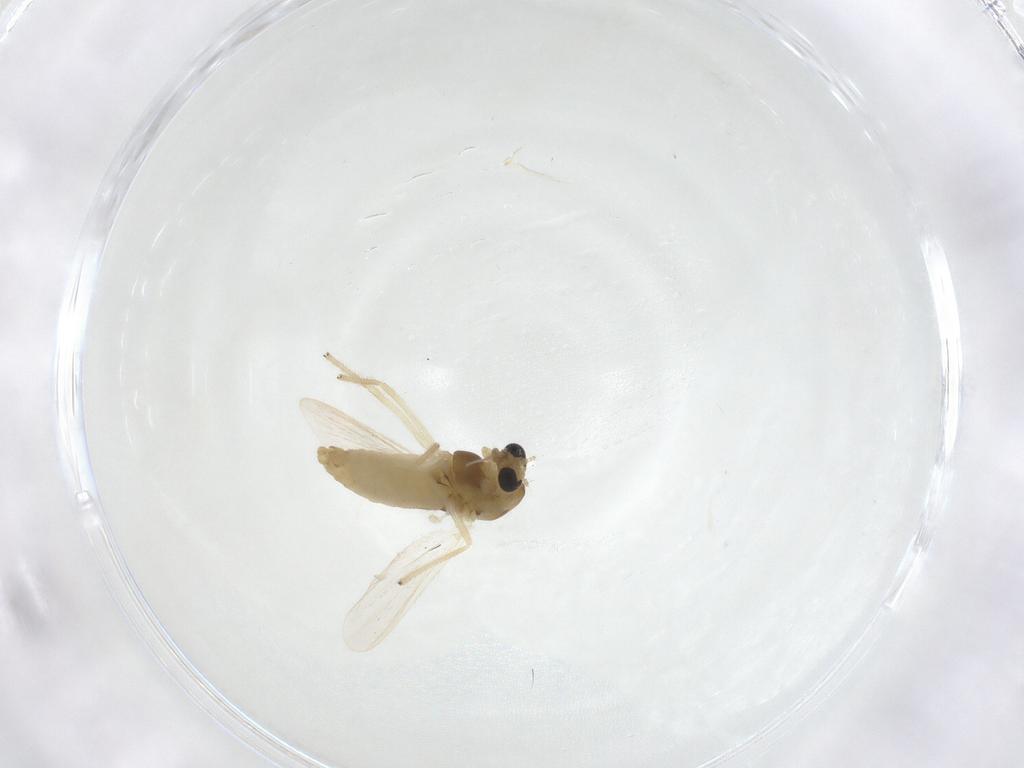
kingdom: Animalia
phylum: Arthropoda
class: Insecta
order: Diptera
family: Chironomidae
